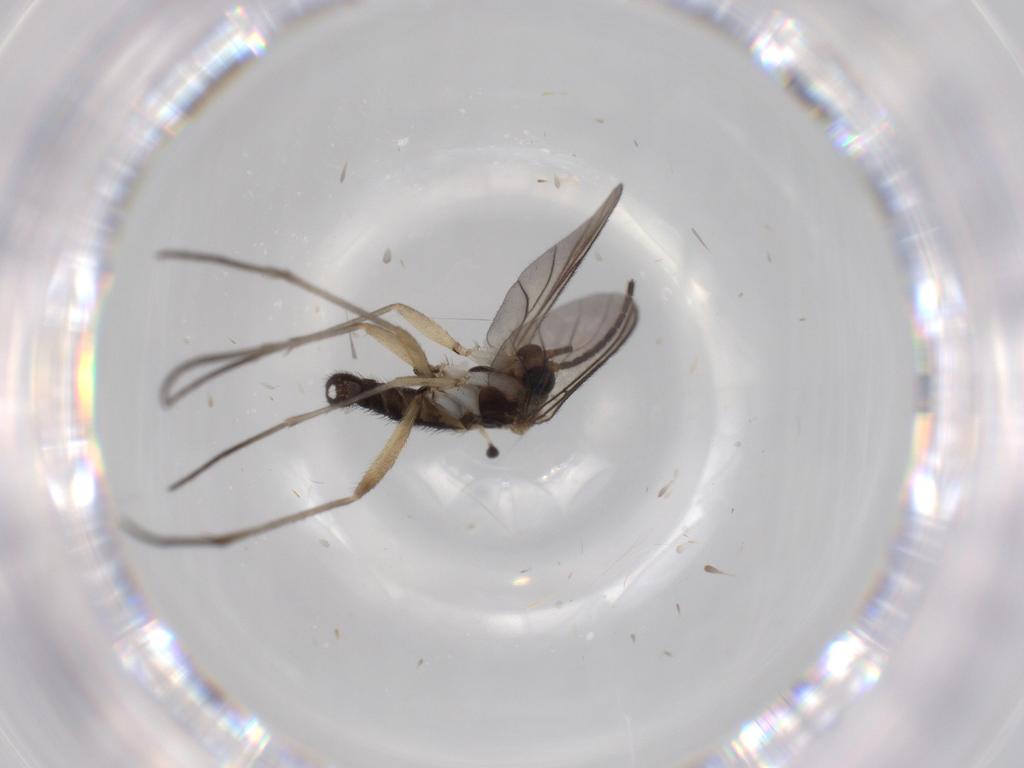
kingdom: Animalia
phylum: Arthropoda
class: Insecta
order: Diptera
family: Sciaridae
